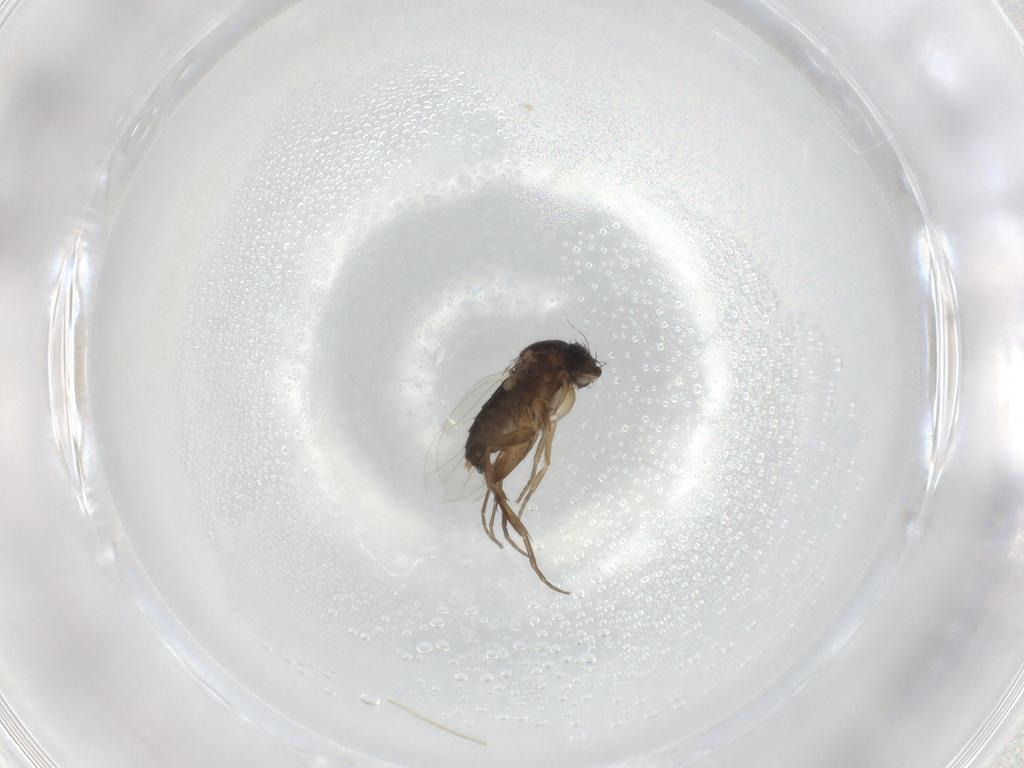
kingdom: Animalia
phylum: Arthropoda
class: Insecta
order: Diptera
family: Phoridae
